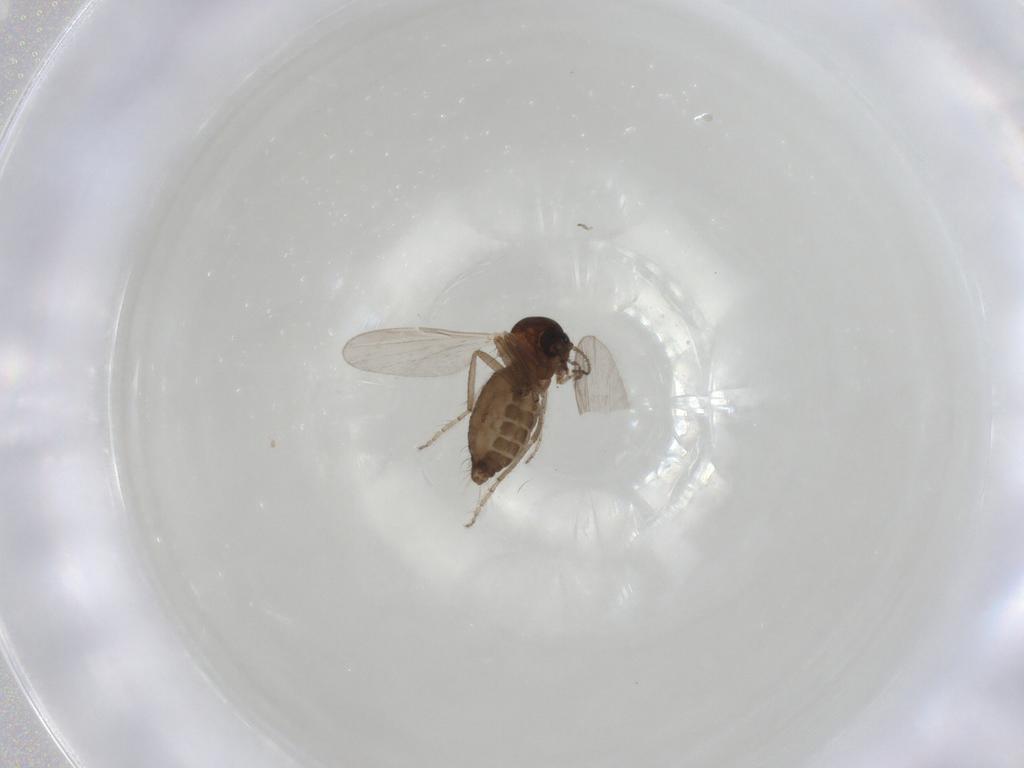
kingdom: Animalia
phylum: Arthropoda
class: Insecta
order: Diptera
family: Ceratopogonidae
